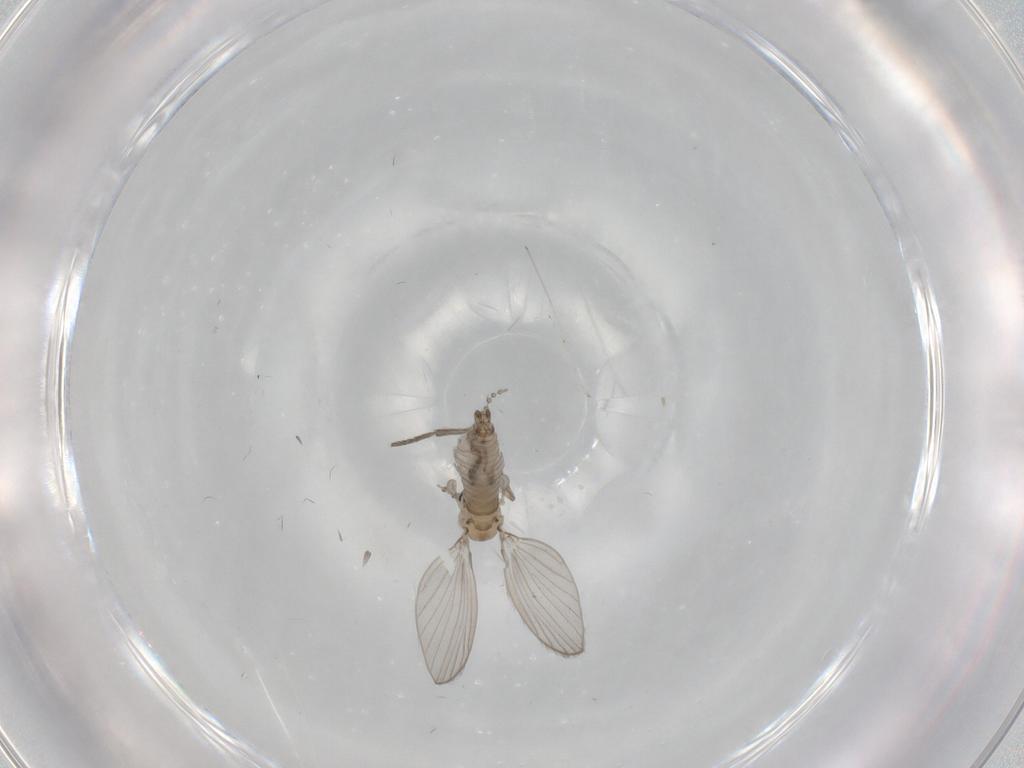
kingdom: Animalia
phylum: Arthropoda
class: Insecta
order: Diptera
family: Psychodidae
